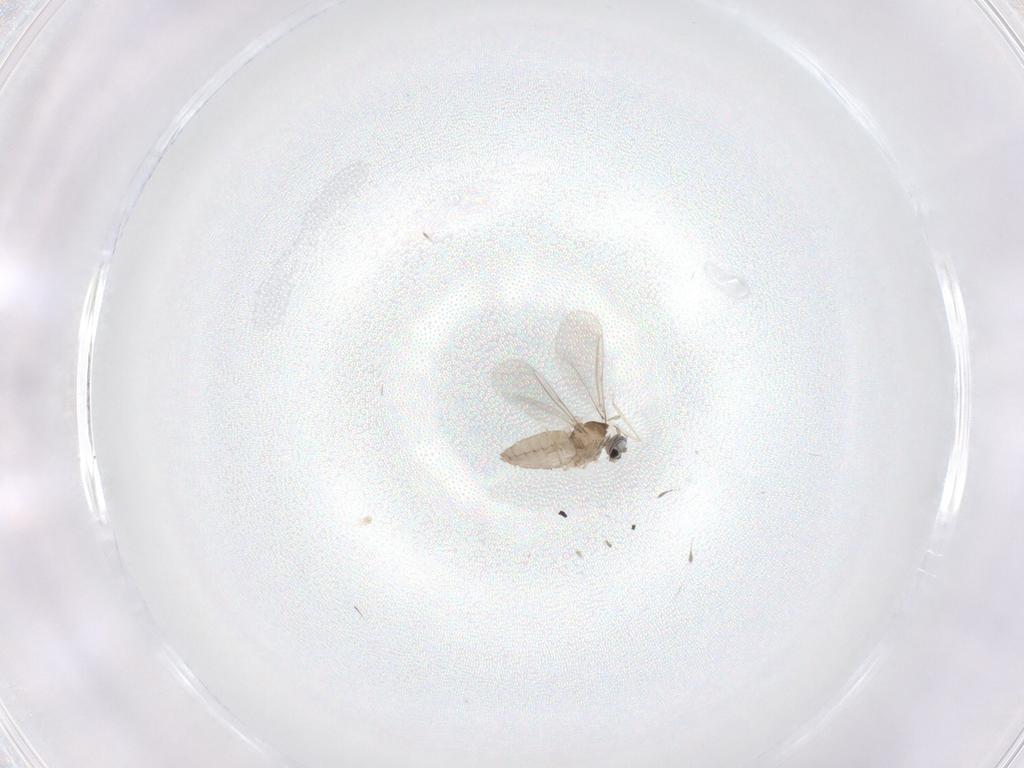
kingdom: Animalia
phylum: Arthropoda
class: Insecta
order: Diptera
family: Cecidomyiidae
